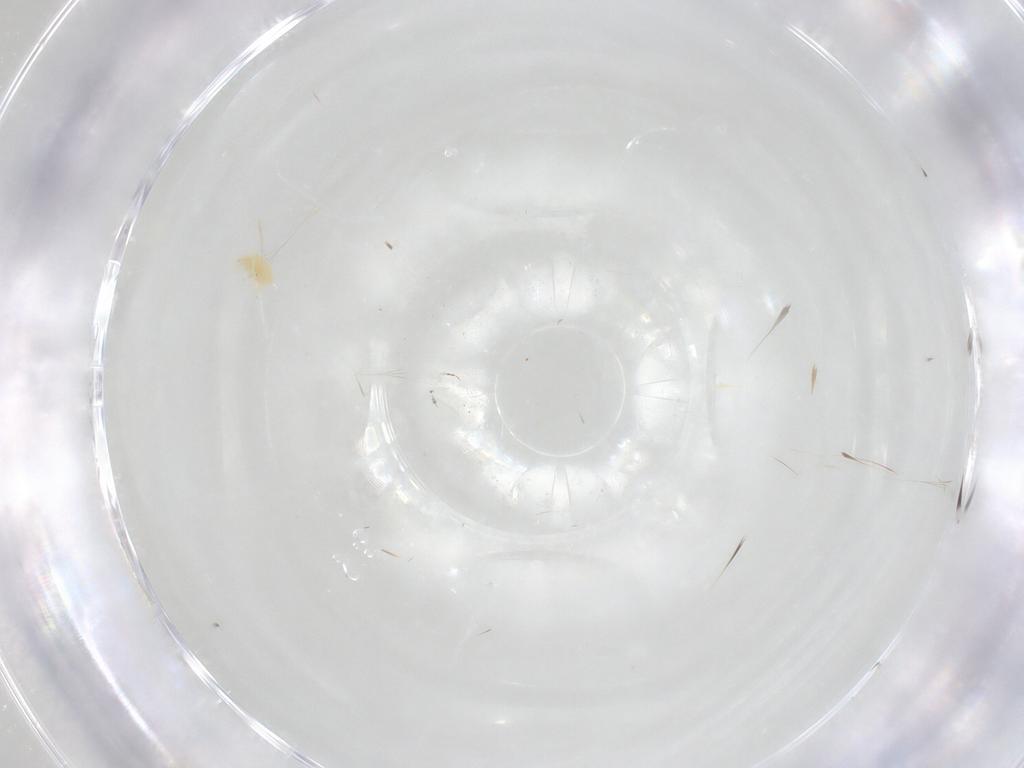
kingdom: Animalia
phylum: Arthropoda
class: Insecta
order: Diptera
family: Cecidomyiidae
